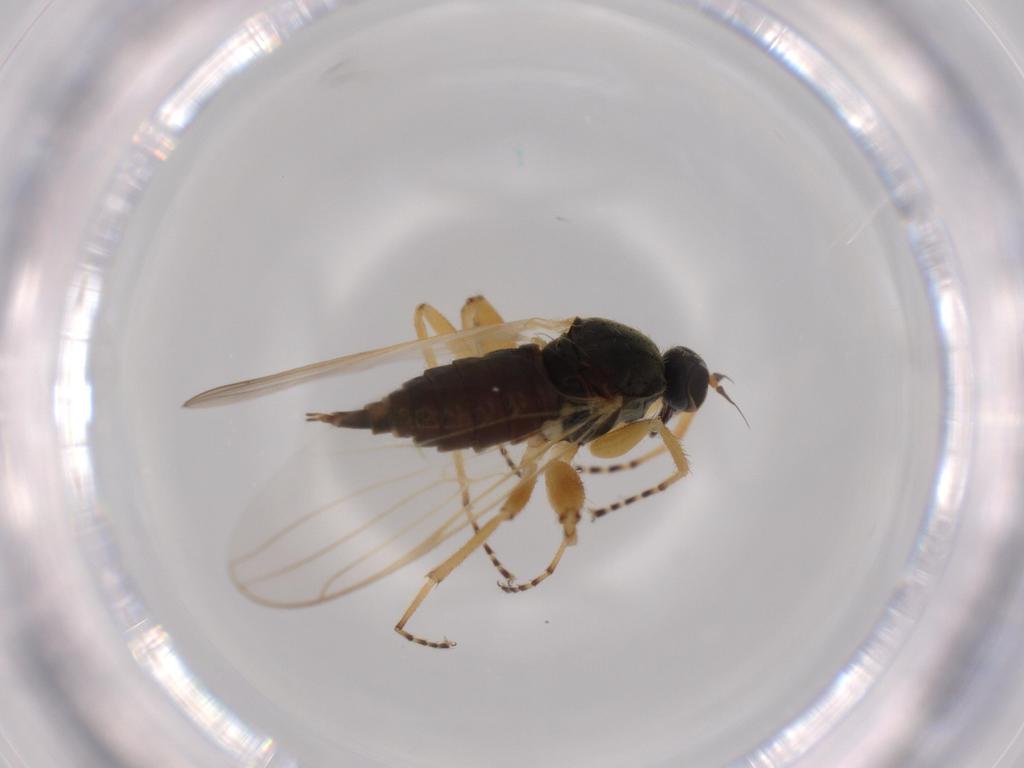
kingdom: Animalia
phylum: Arthropoda
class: Insecta
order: Diptera
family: Hybotidae
